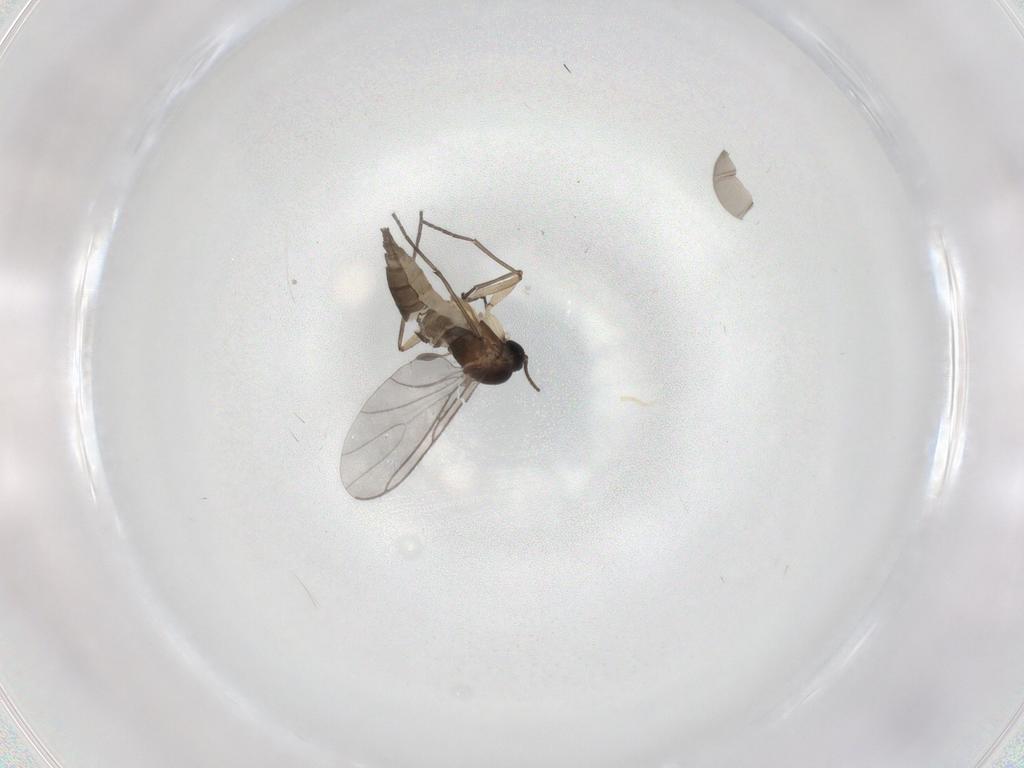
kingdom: Animalia
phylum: Arthropoda
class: Insecta
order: Diptera
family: Sciaridae
